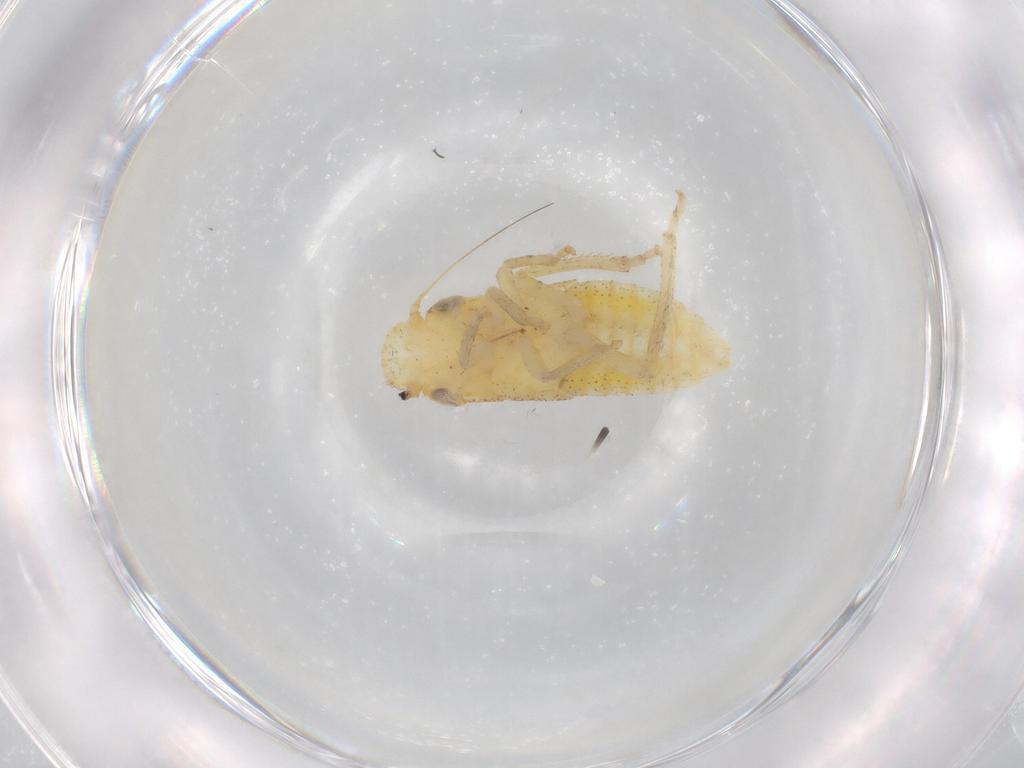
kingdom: Animalia
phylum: Arthropoda
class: Insecta
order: Hemiptera
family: Cicadellidae
